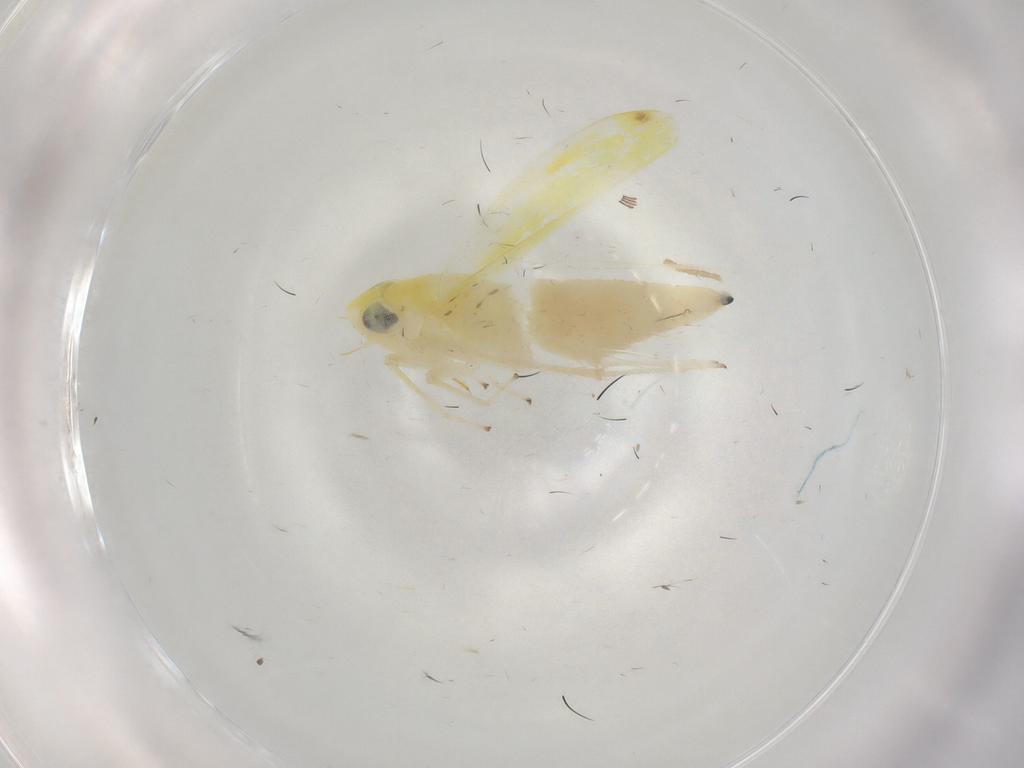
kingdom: Animalia
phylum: Arthropoda
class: Insecta
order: Hemiptera
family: Cicadellidae
